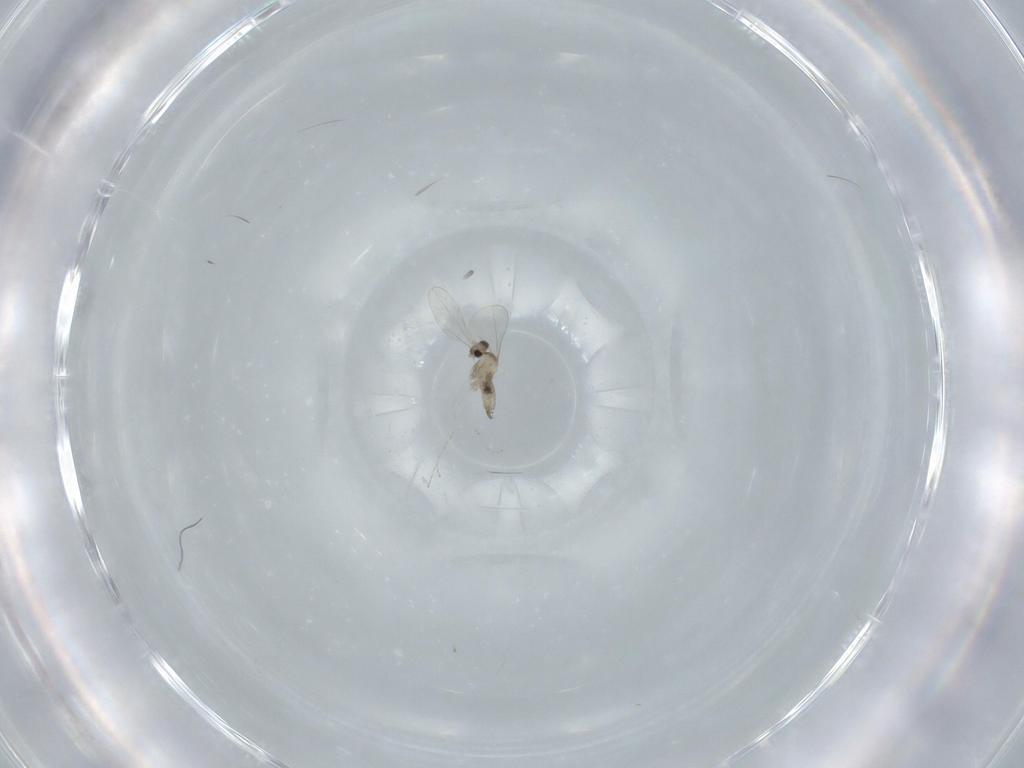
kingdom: Animalia
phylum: Arthropoda
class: Insecta
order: Diptera
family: Cecidomyiidae
